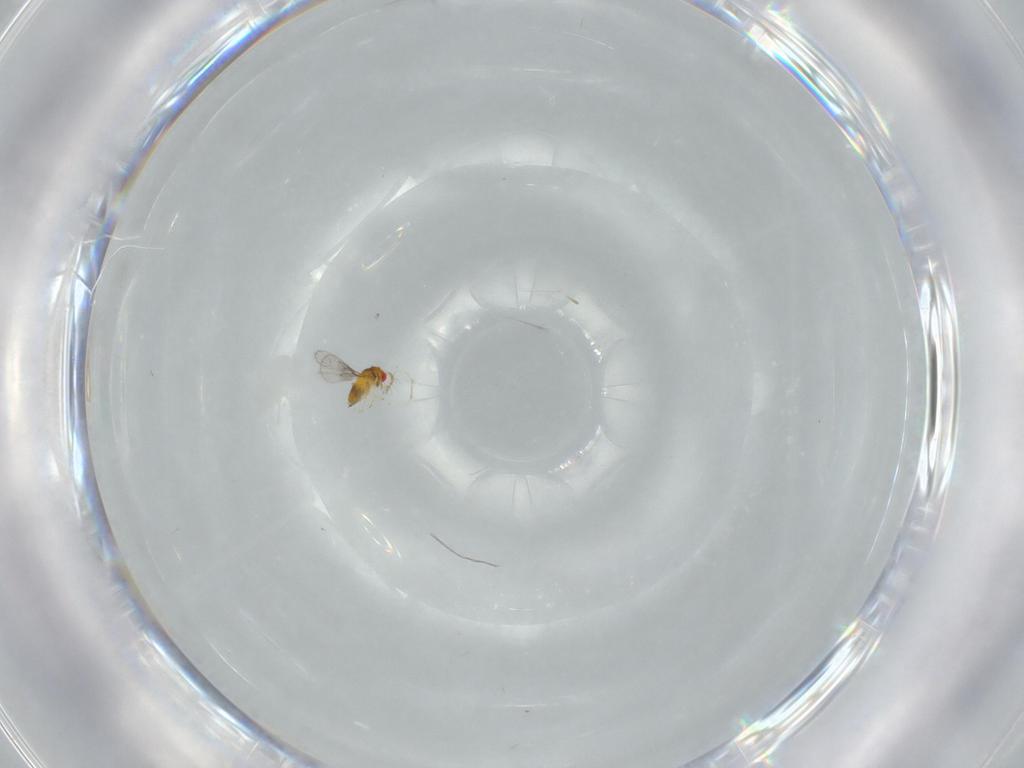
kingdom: Animalia
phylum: Arthropoda
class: Insecta
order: Hymenoptera
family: Trichogrammatidae
